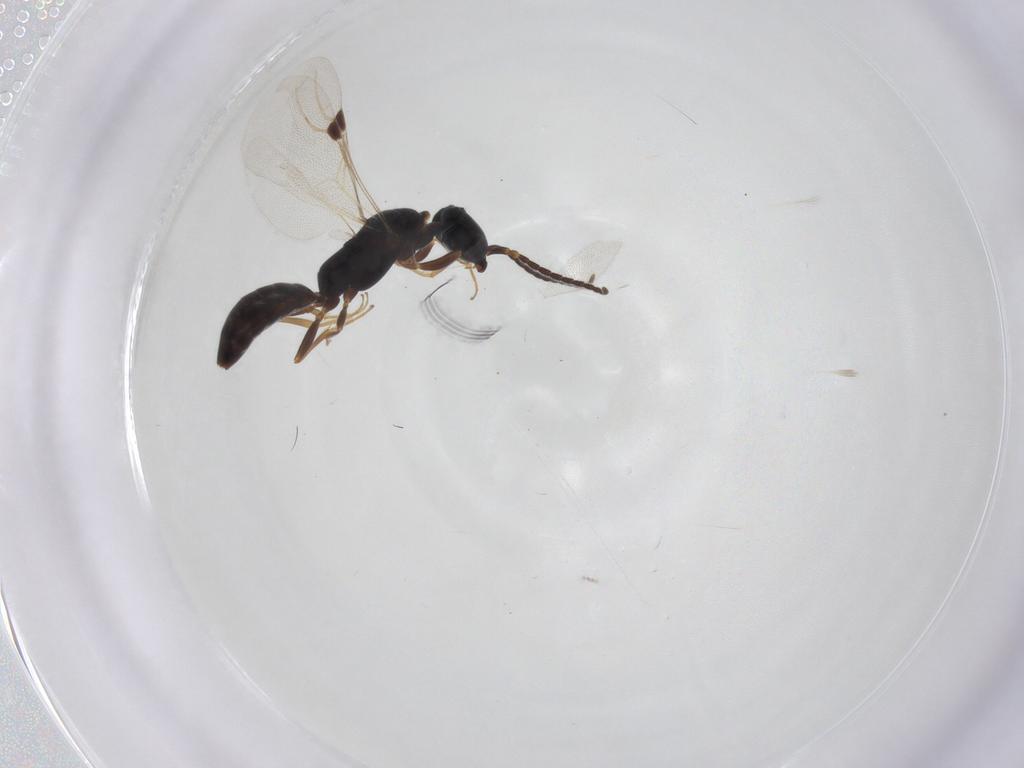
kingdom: Animalia
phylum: Arthropoda
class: Insecta
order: Hymenoptera
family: Bethylidae
